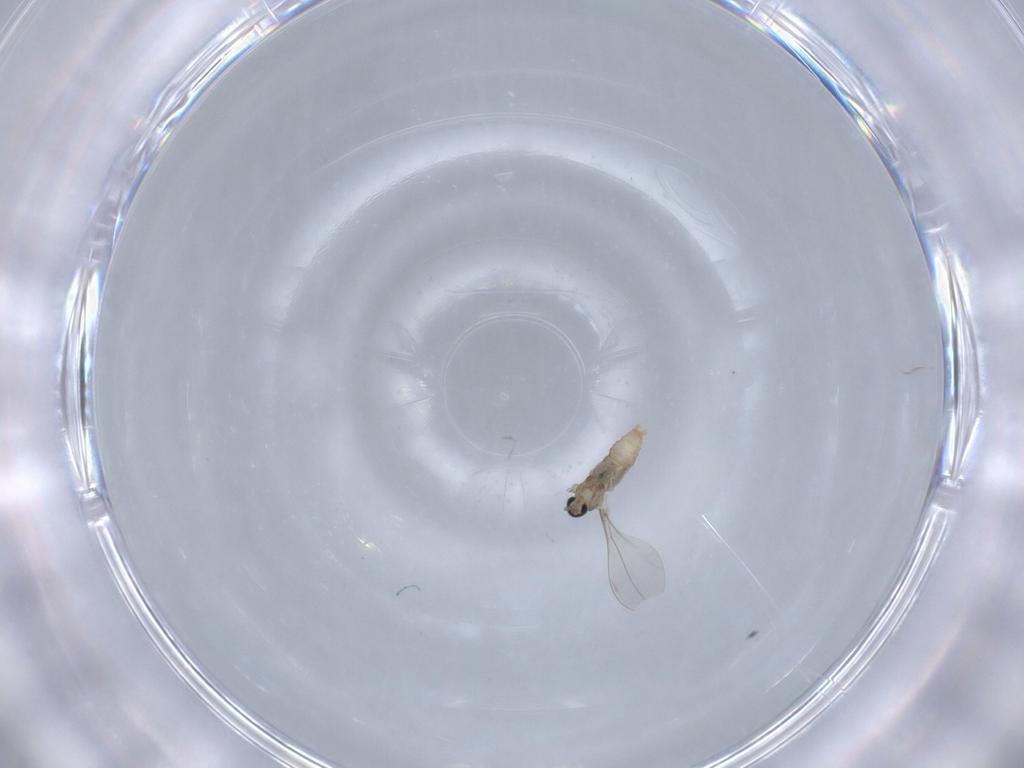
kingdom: Animalia
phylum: Arthropoda
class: Insecta
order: Diptera
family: Cecidomyiidae
